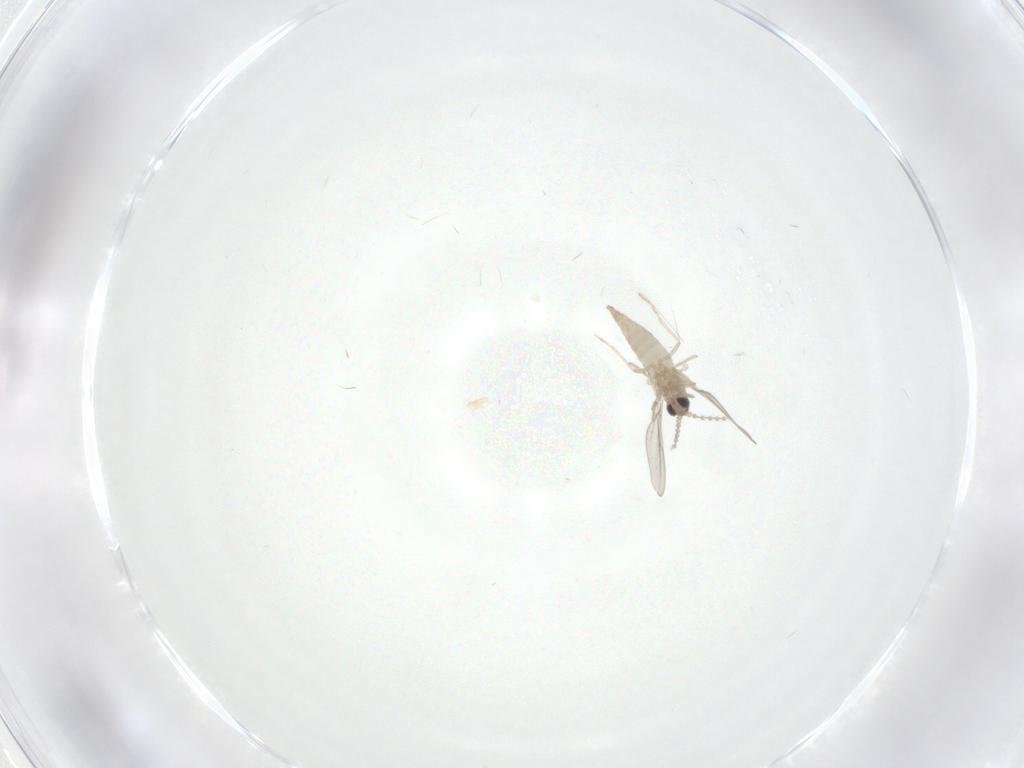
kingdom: Animalia
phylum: Arthropoda
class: Insecta
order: Diptera
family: Cecidomyiidae
